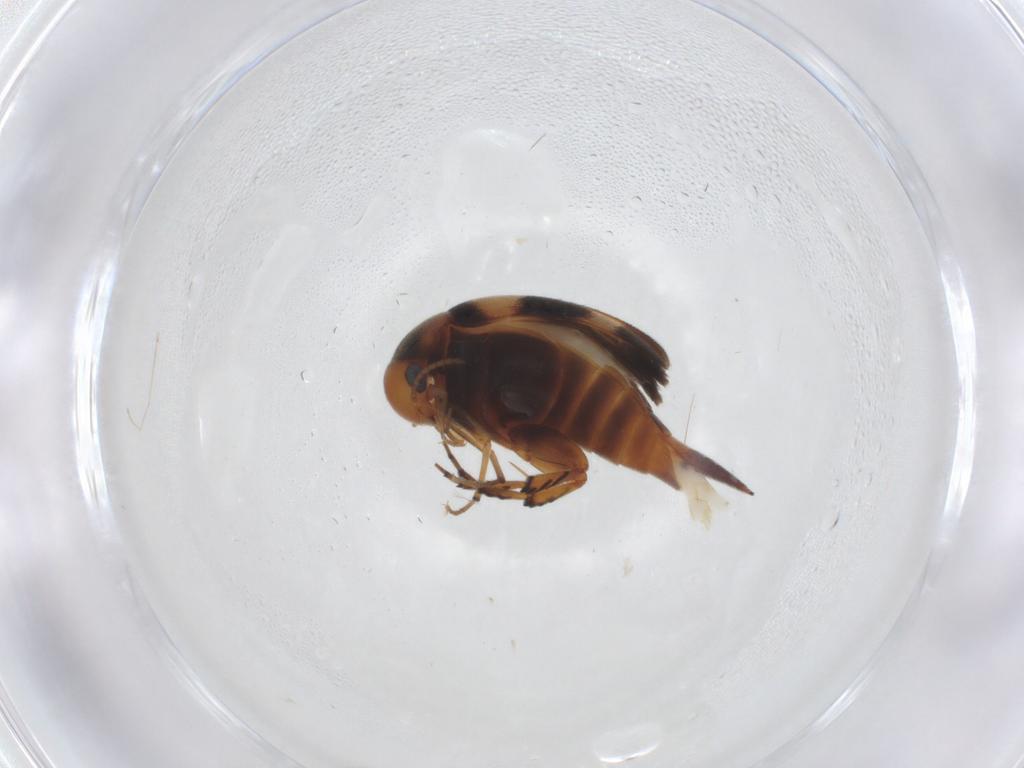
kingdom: Animalia
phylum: Arthropoda
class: Insecta
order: Coleoptera
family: Mordellidae
